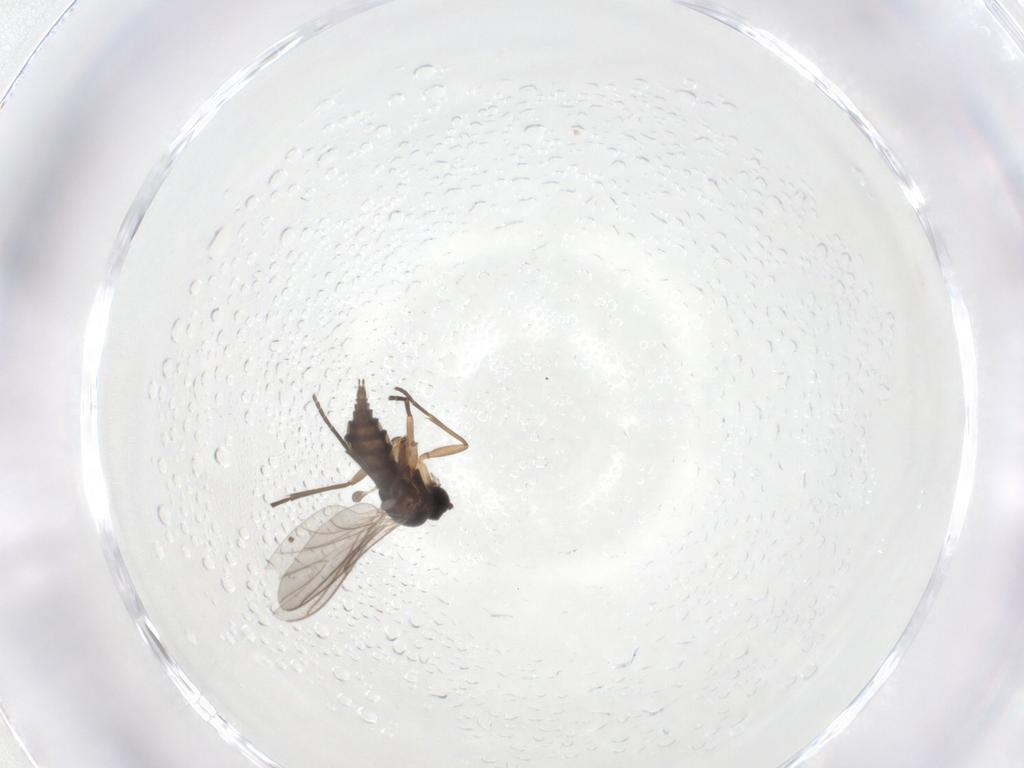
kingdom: Animalia
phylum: Arthropoda
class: Insecta
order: Diptera
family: Sciaridae
